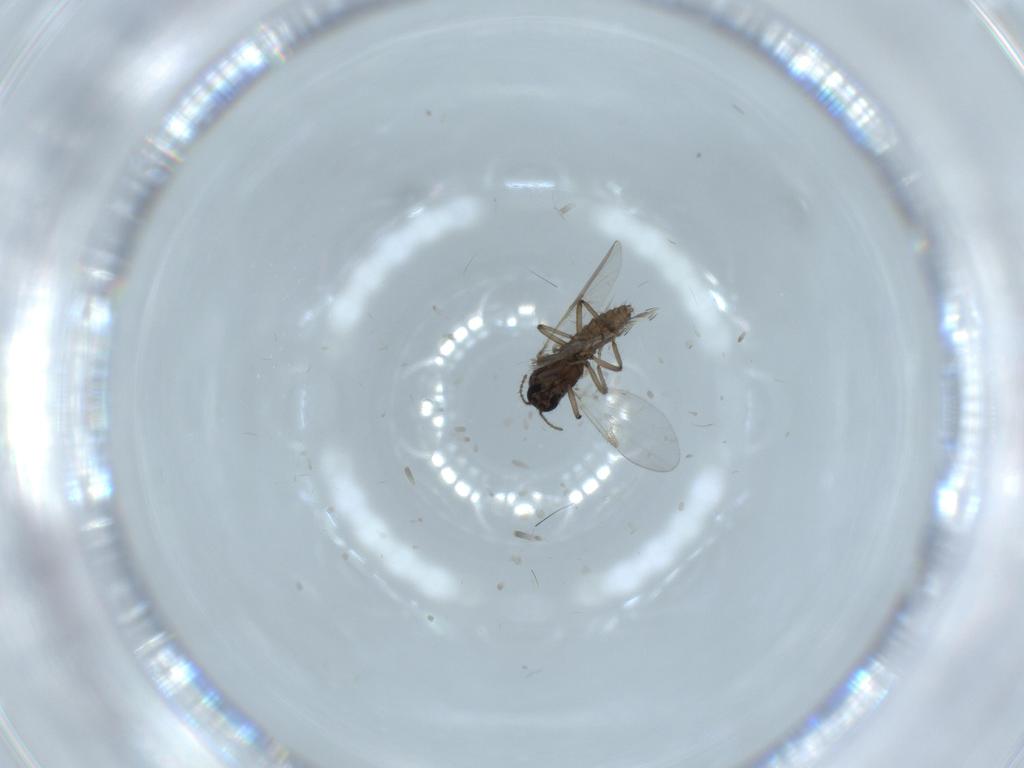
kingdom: Animalia
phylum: Arthropoda
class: Insecta
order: Diptera
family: Ceratopogonidae
